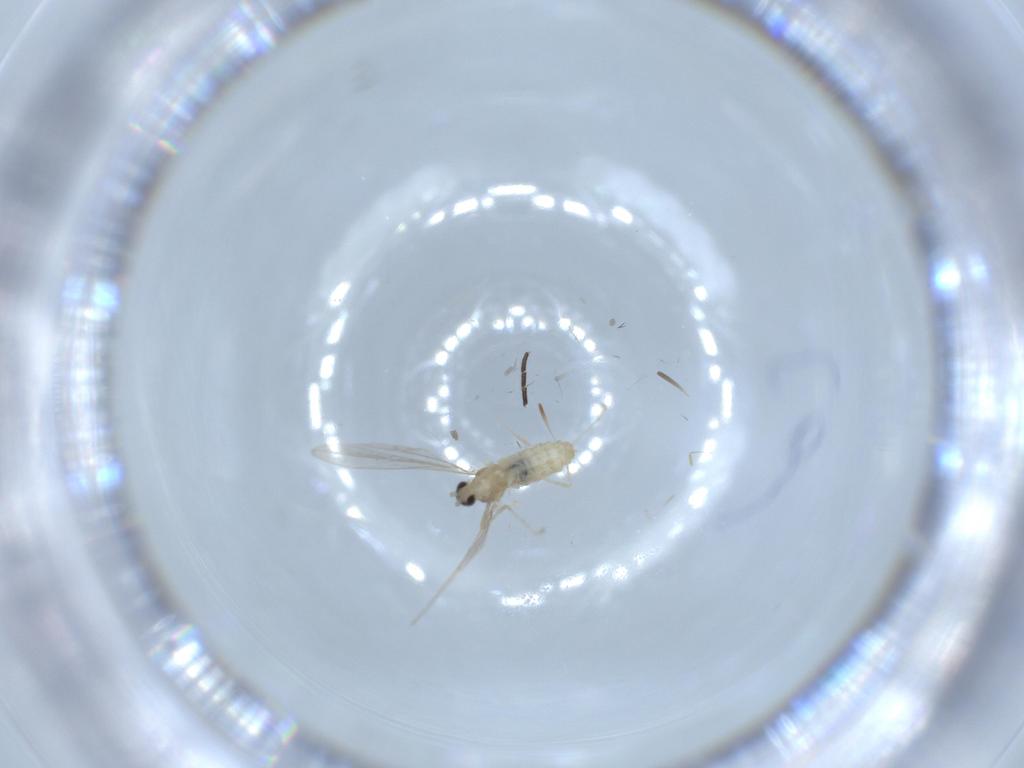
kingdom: Animalia
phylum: Arthropoda
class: Insecta
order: Diptera
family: Cecidomyiidae
